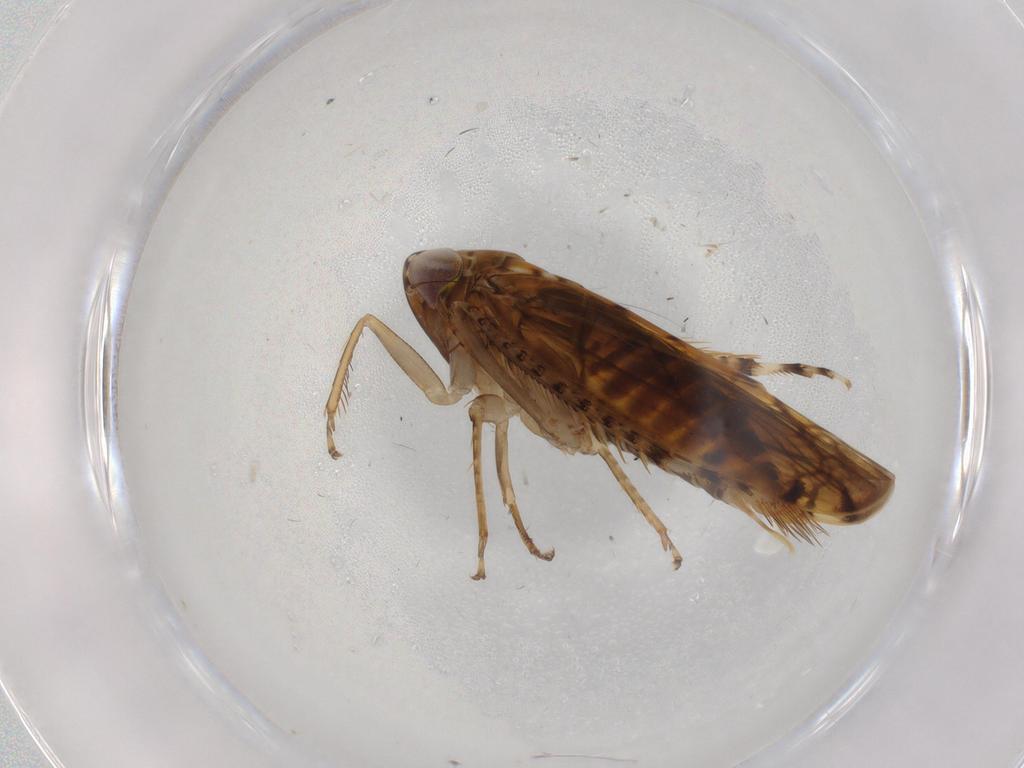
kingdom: Animalia
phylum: Arthropoda
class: Insecta
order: Hemiptera
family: Cicadellidae
